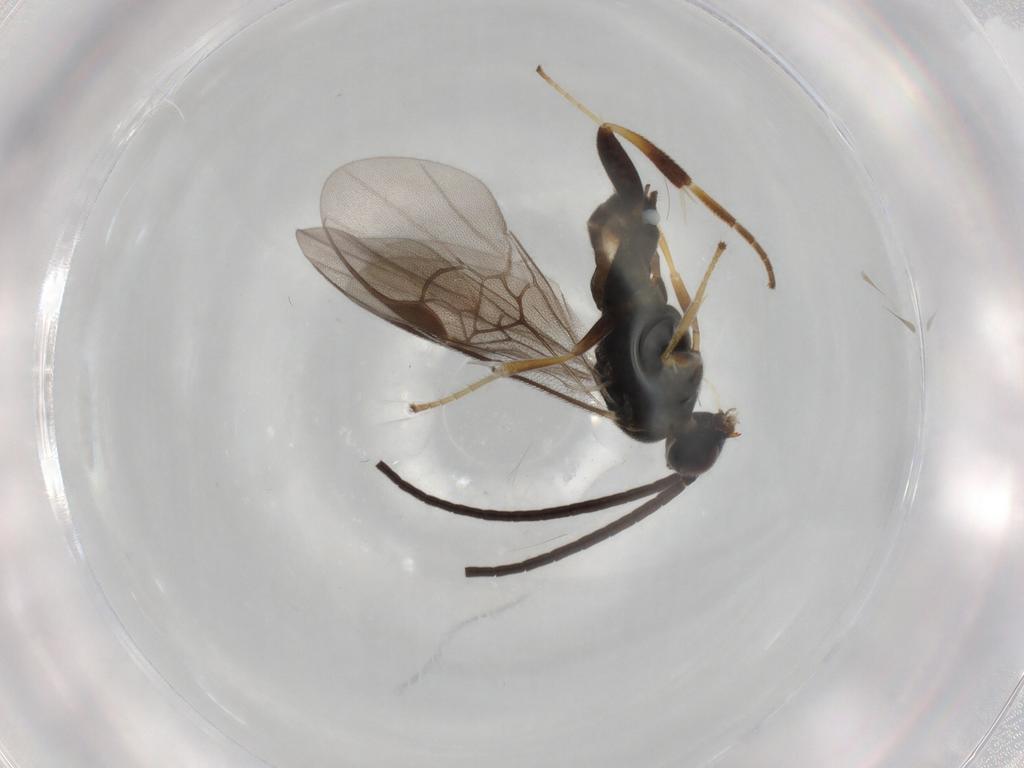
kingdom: Animalia
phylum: Arthropoda
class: Insecta
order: Hymenoptera
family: Braconidae
